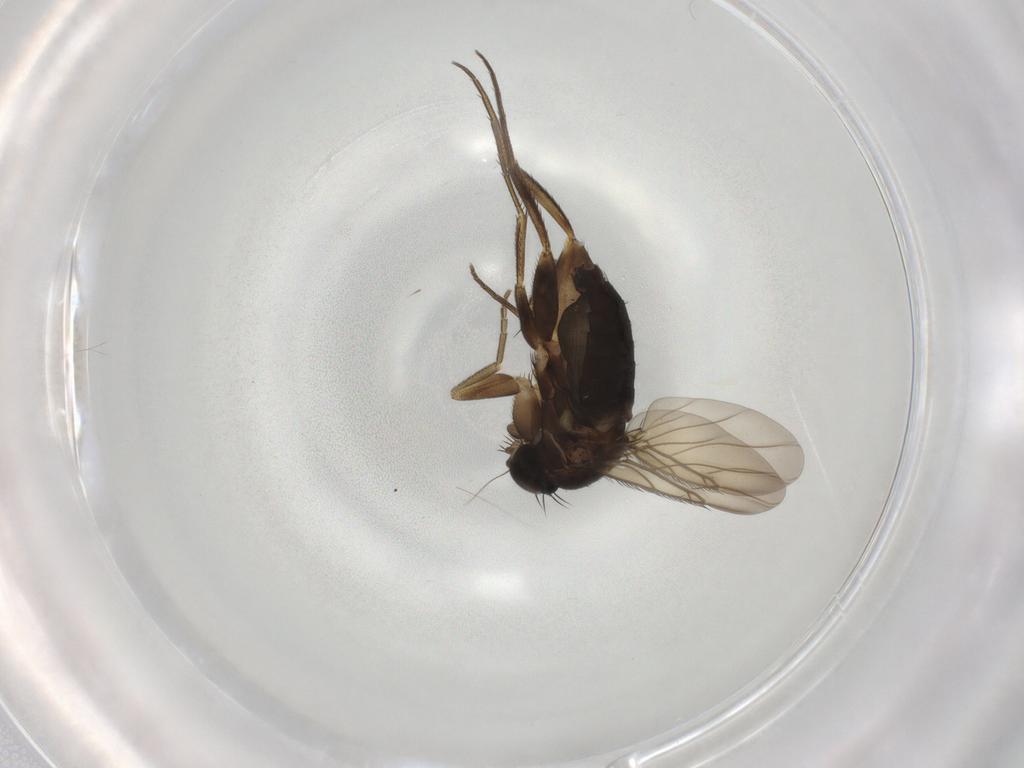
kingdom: Animalia
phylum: Arthropoda
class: Insecta
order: Diptera
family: Phoridae
